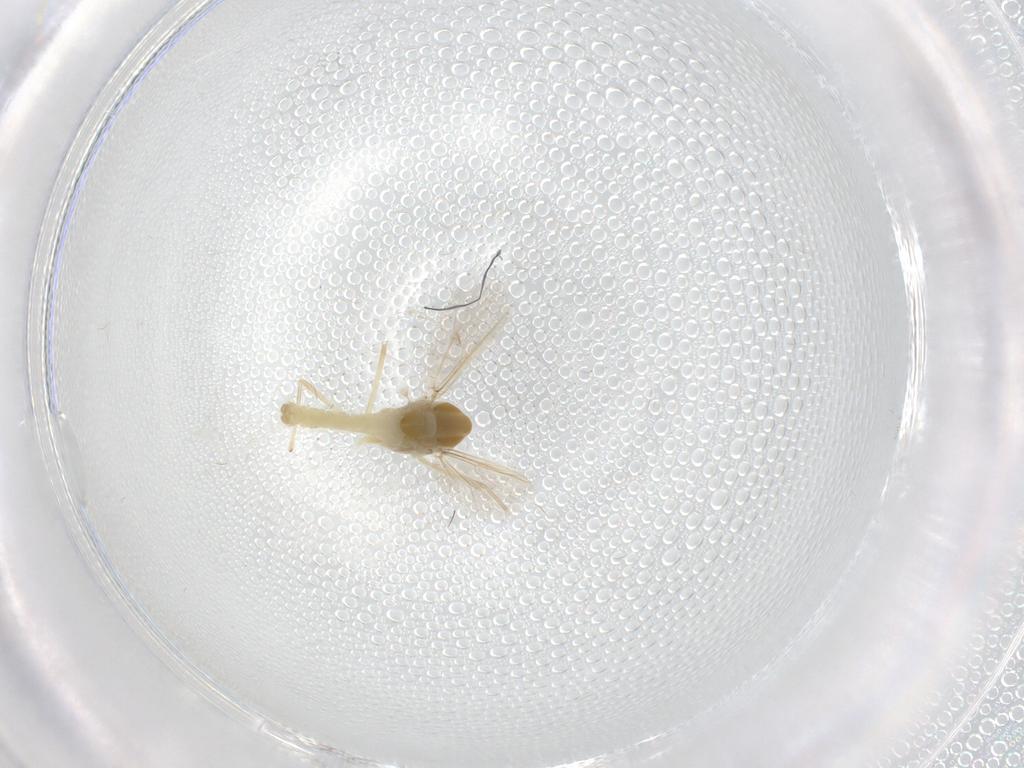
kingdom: Animalia
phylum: Arthropoda
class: Insecta
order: Diptera
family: Chironomidae
